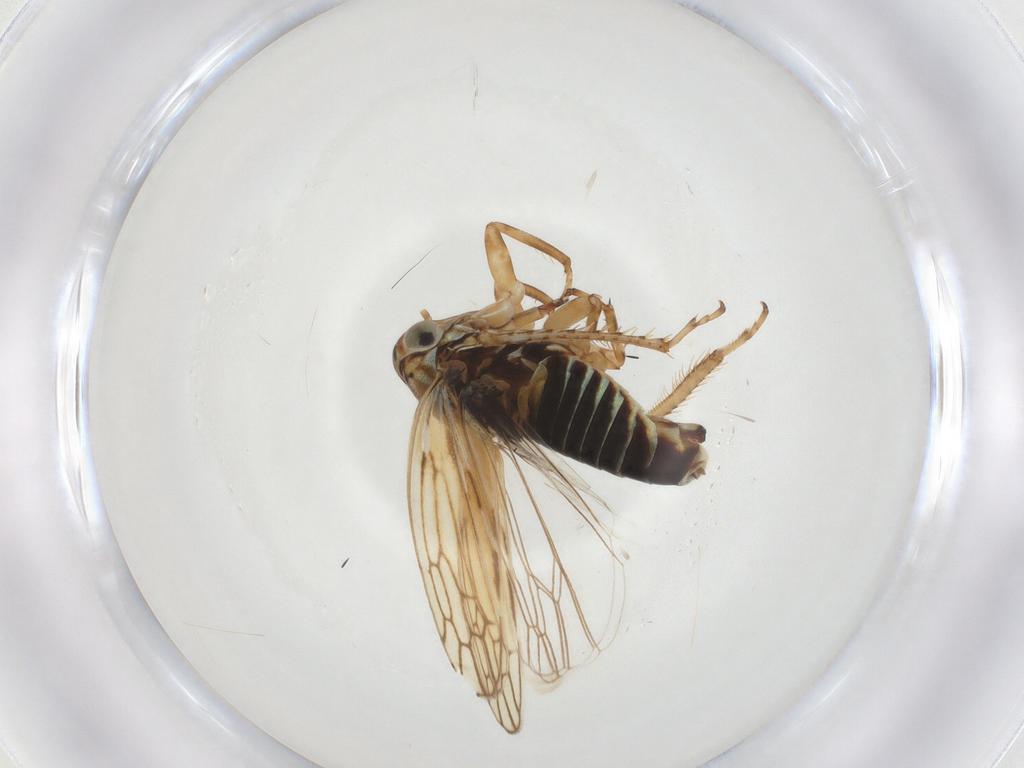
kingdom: Animalia
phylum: Arthropoda
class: Insecta
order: Hemiptera
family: Cicadellidae
